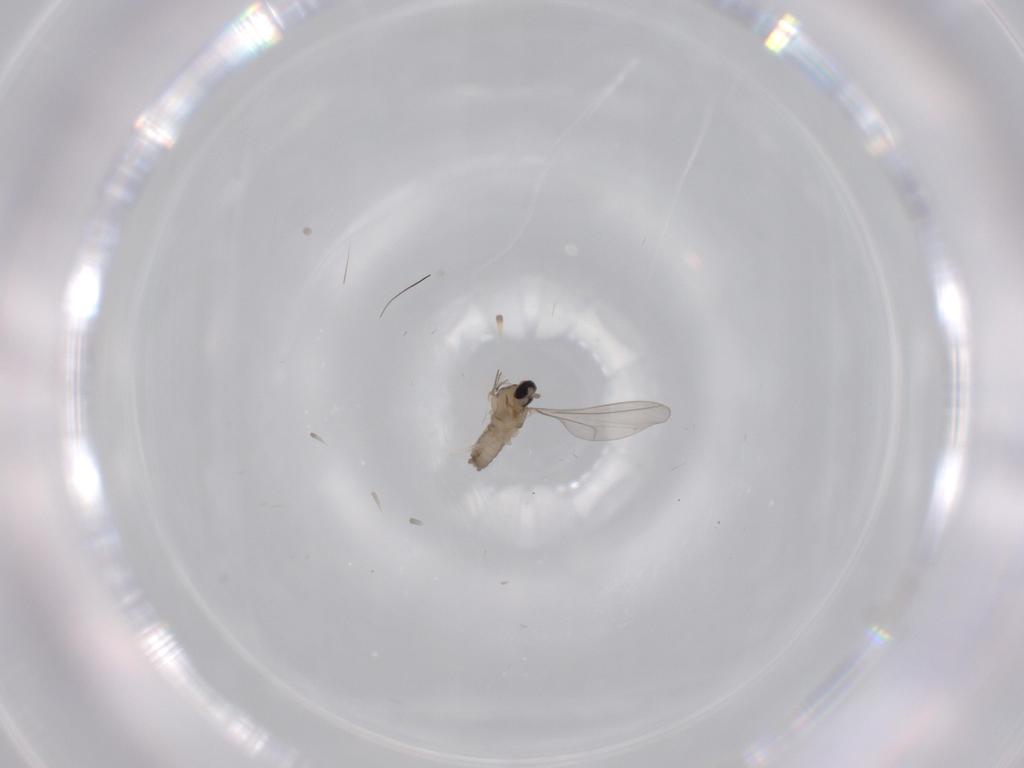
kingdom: Animalia
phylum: Arthropoda
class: Insecta
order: Diptera
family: Cecidomyiidae
